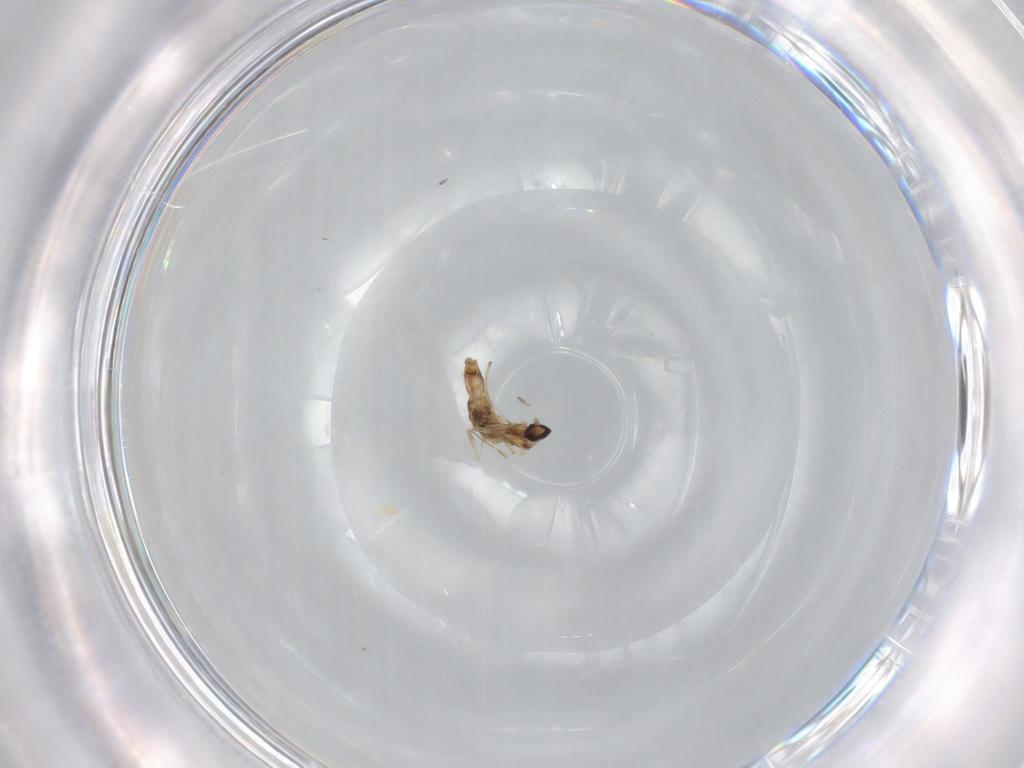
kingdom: Animalia
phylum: Arthropoda
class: Insecta
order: Diptera
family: Cecidomyiidae
